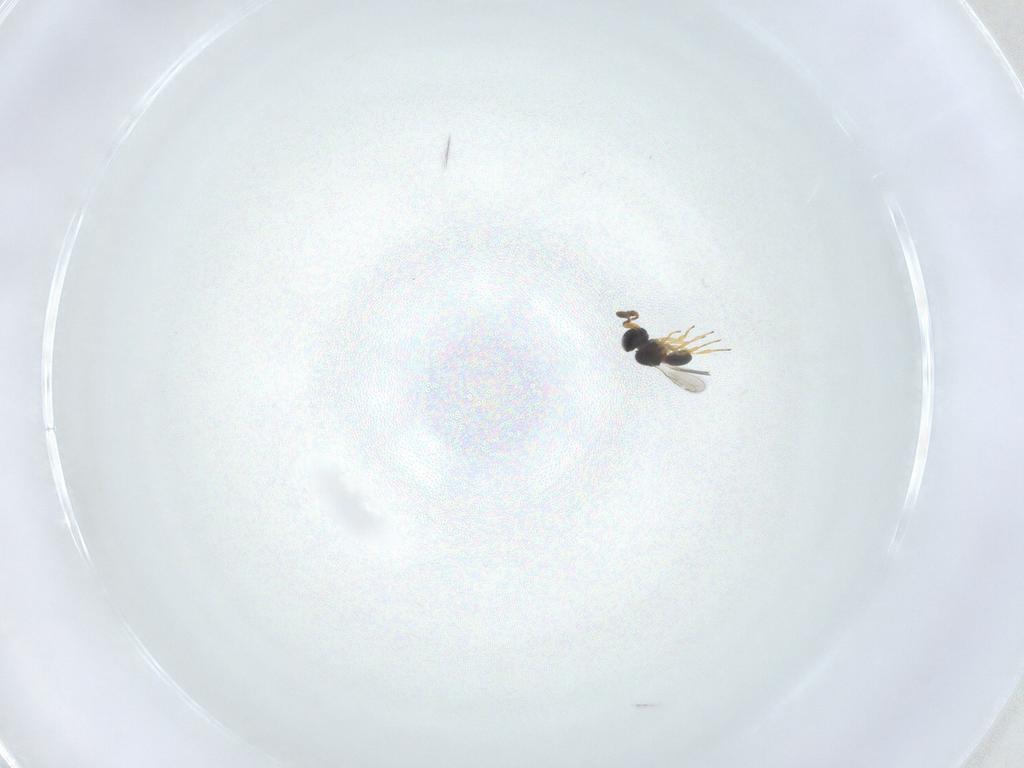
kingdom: Animalia
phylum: Arthropoda
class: Insecta
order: Hymenoptera
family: Scelionidae
